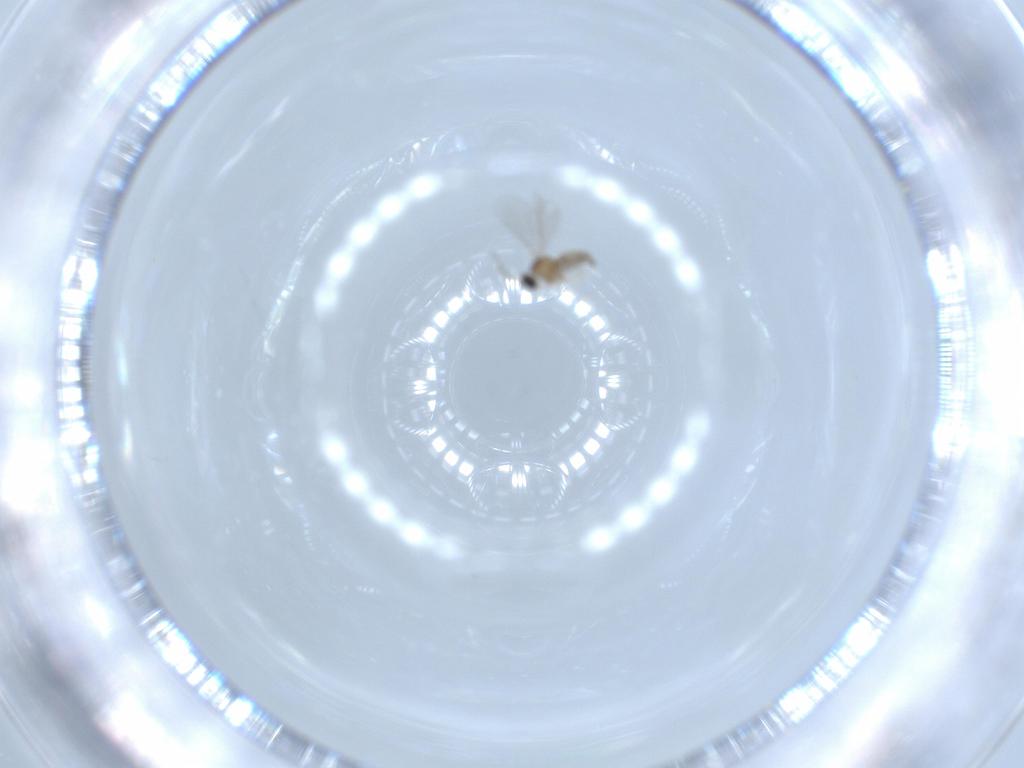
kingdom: Animalia
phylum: Arthropoda
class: Insecta
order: Diptera
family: Cecidomyiidae
